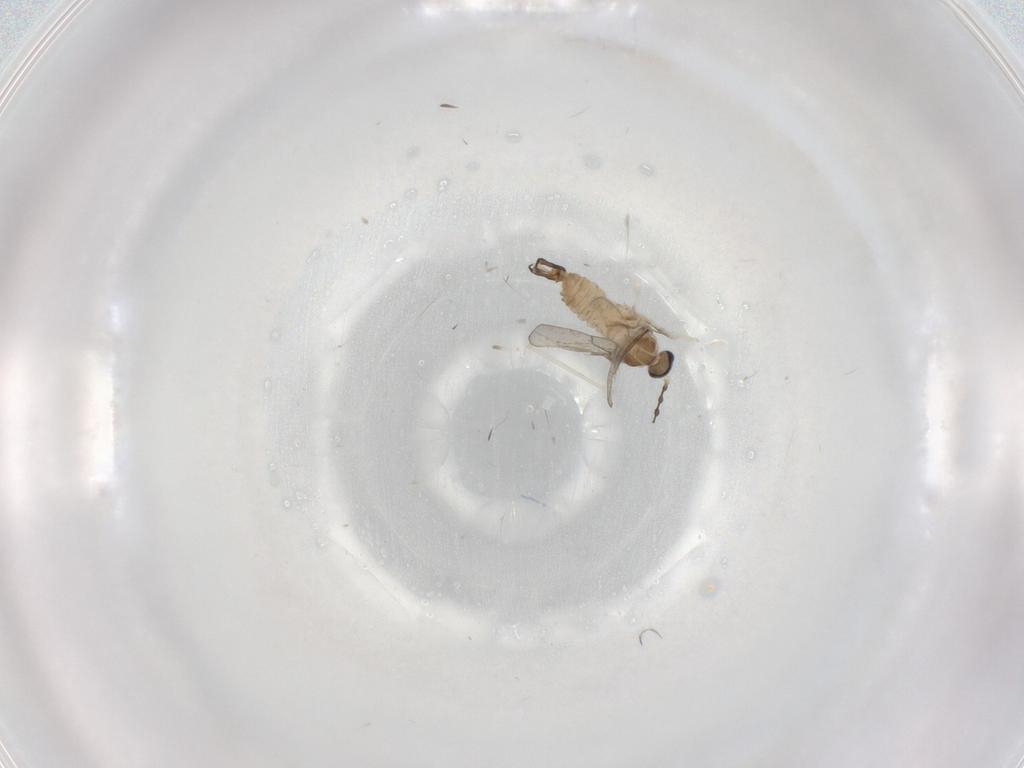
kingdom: Animalia
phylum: Arthropoda
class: Insecta
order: Diptera
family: Cecidomyiidae
